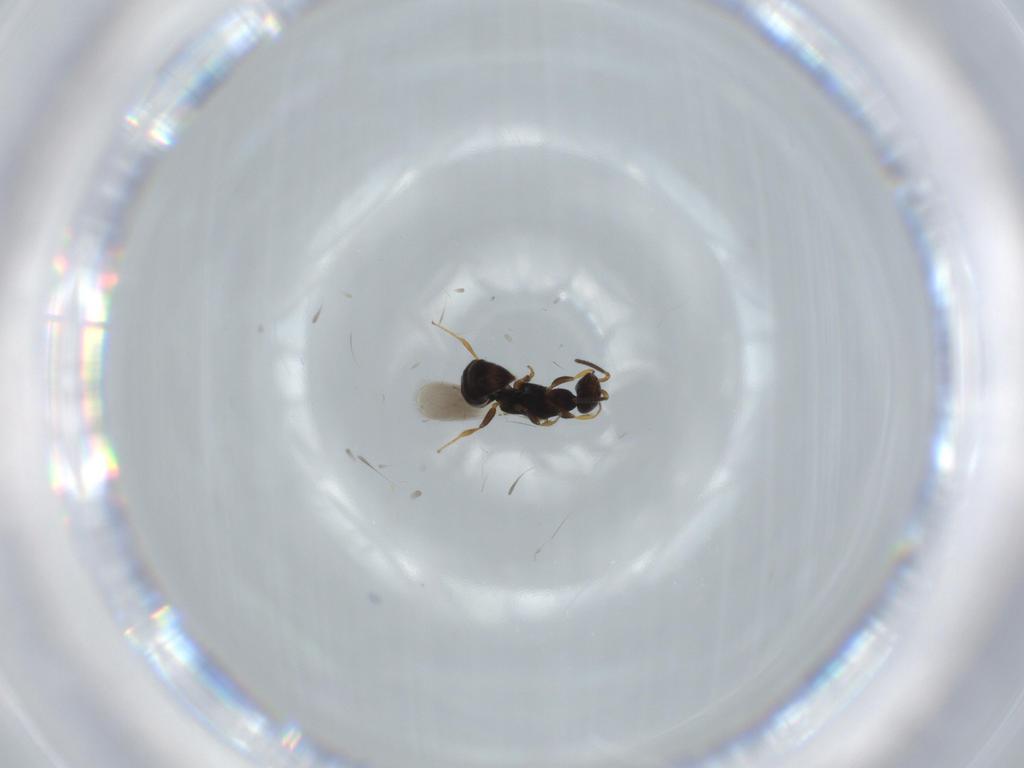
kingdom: Animalia
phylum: Arthropoda
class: Insecta
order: Hymenoptera
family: Bethylidae
